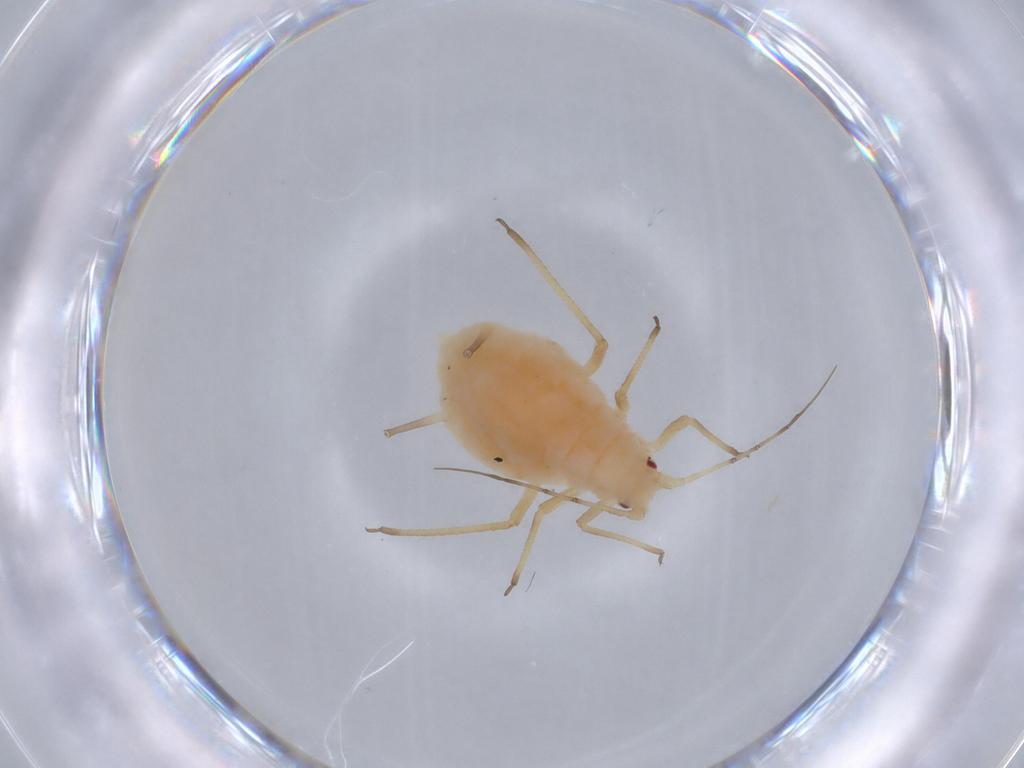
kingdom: Animalia
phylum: Arthropoda
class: Insecta
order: Hemiptera
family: Aphididae
